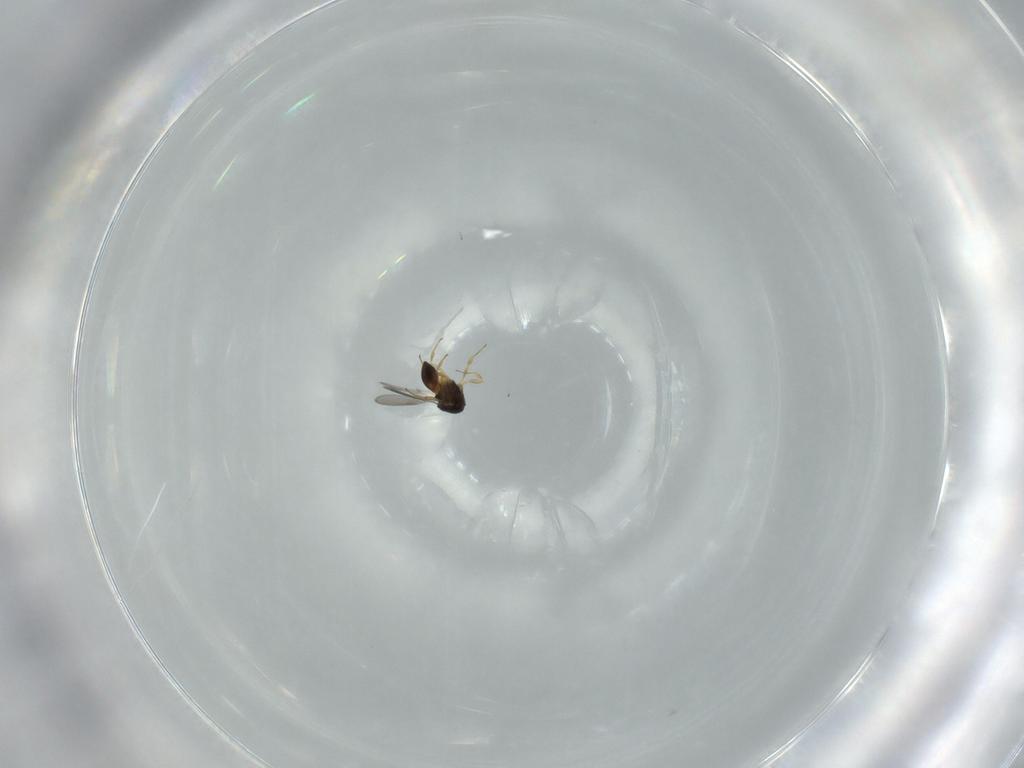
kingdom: Animalia
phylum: Arthropoda
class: Insecta
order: Hymenoptera
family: Scelionidae
